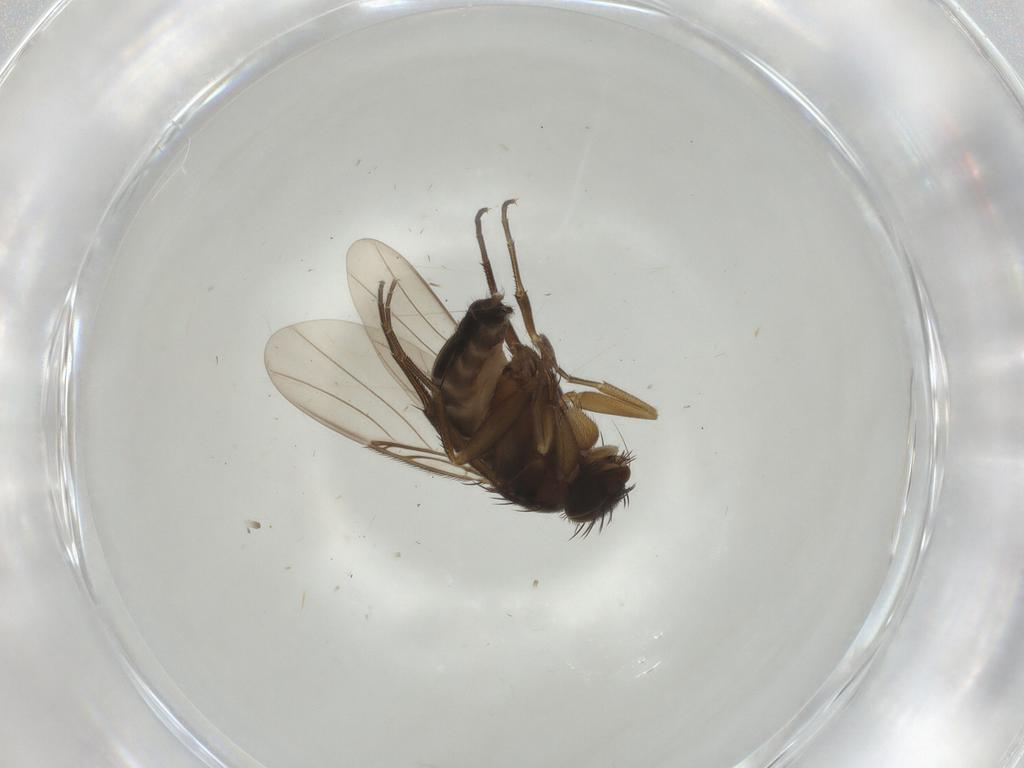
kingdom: Animalia
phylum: Arthropoda
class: Insecta
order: Diptera
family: Phoridae
